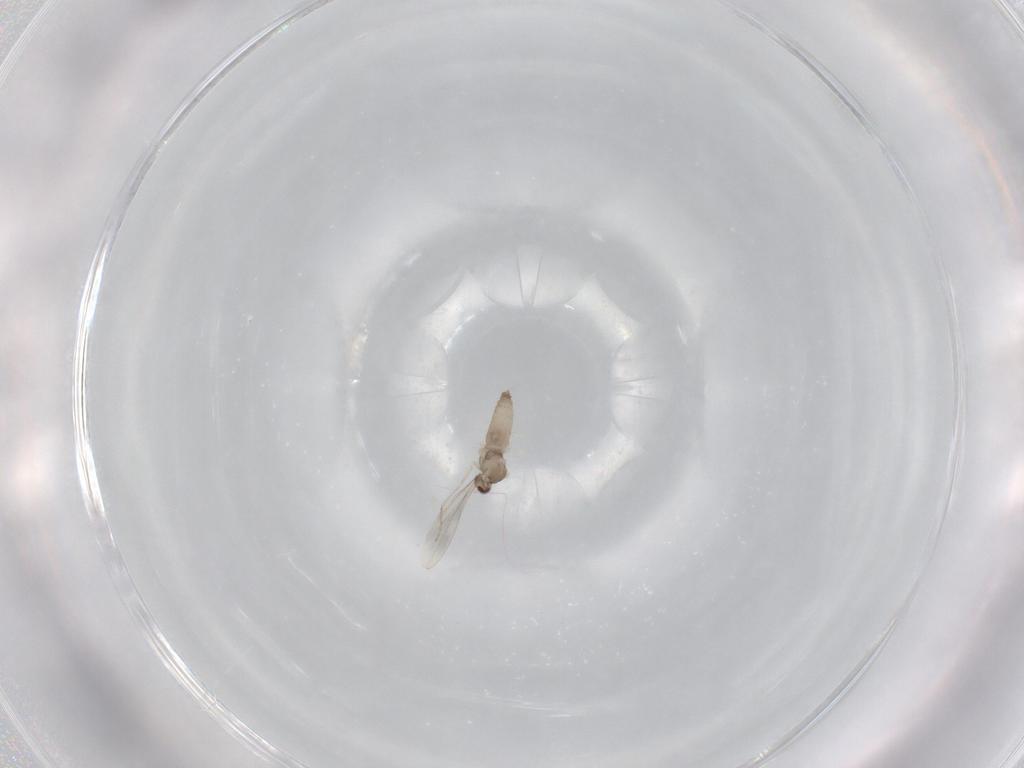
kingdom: Animalia
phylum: Arthropoda
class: Insecta
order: Diptera
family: Cecidomyiidae
